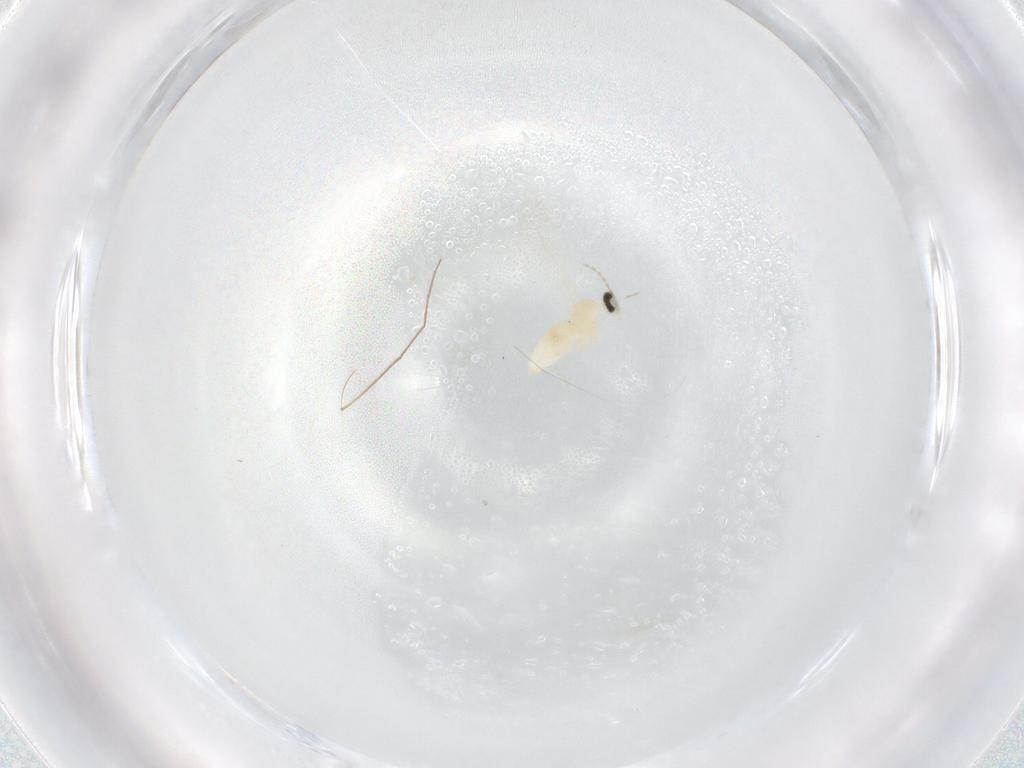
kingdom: Animalia
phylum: Arthropoda
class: Insecta
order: Diptera
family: Cecidomyiidae
